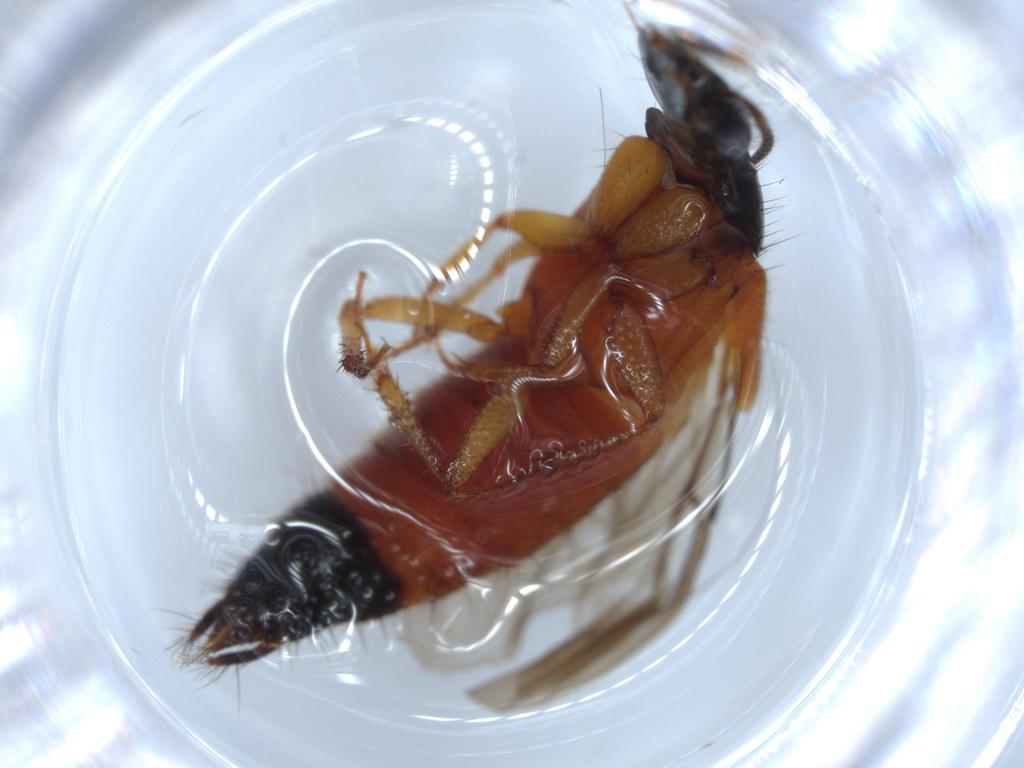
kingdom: Animalia
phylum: Arthropoda
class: Insecta
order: Coleoptera
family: Staphylinidae
